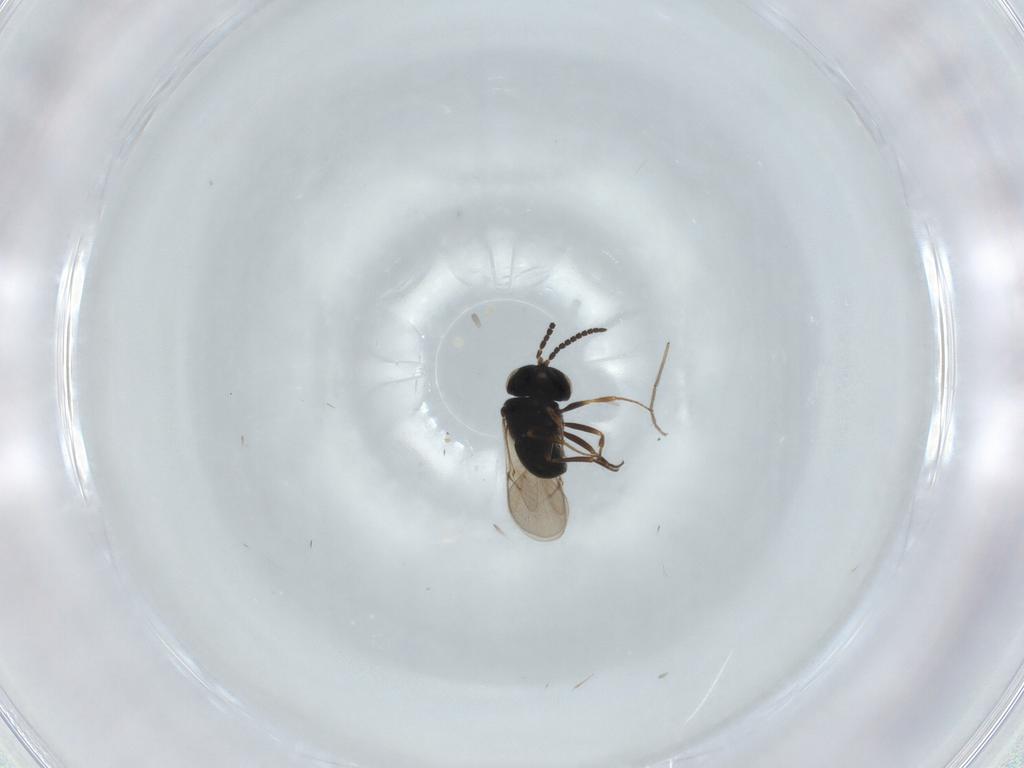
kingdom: Animalia
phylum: Arthropoda
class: Insecta
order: Hymenoptera
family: Scelionidae
